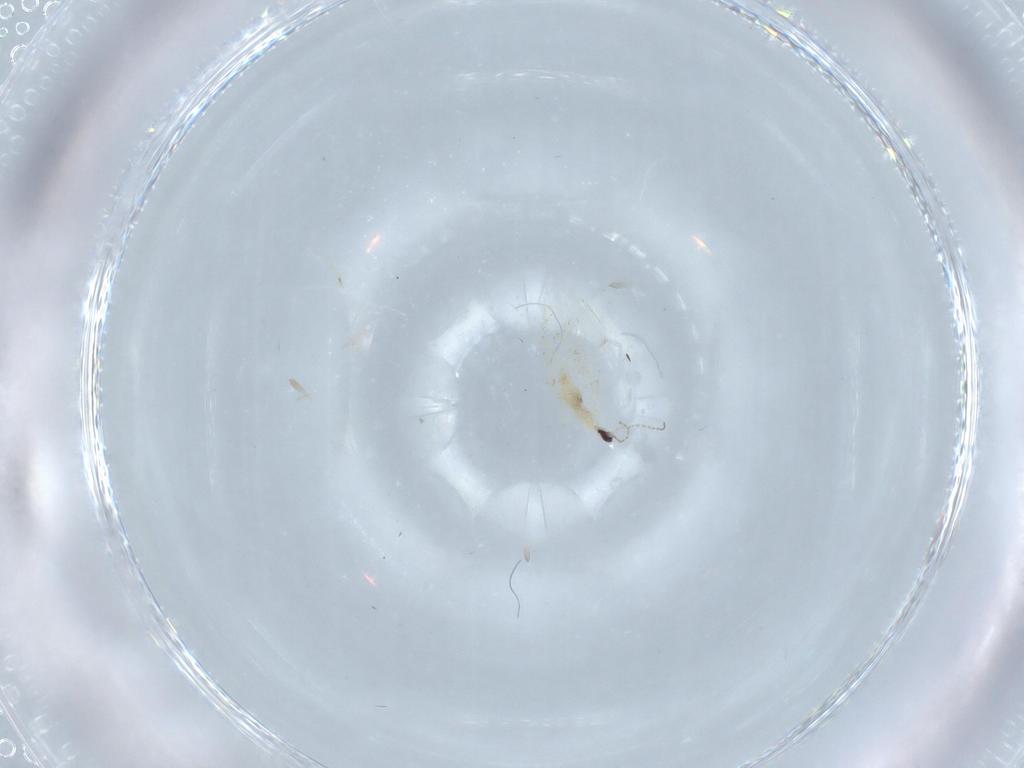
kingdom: Animalia
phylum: Arthropoda
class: Insecta
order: Diptera
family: Cecidomyiidae
